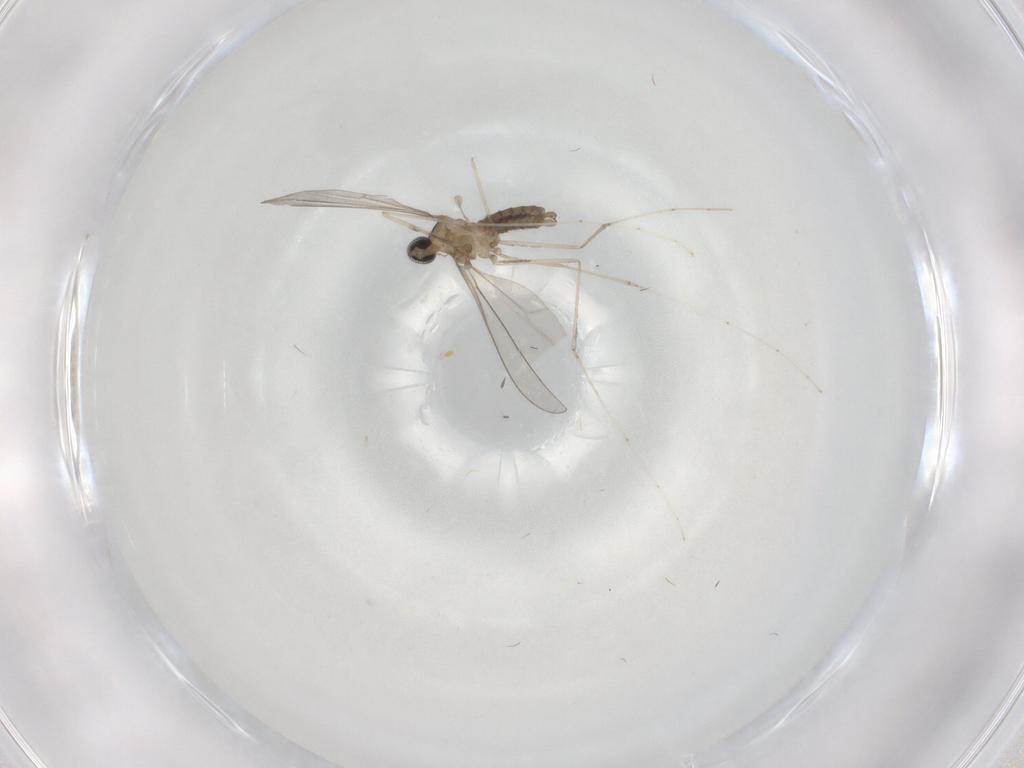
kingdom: Animalia
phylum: Arthropoda
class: Insecta
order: Diptera
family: Cecidomyiidae
